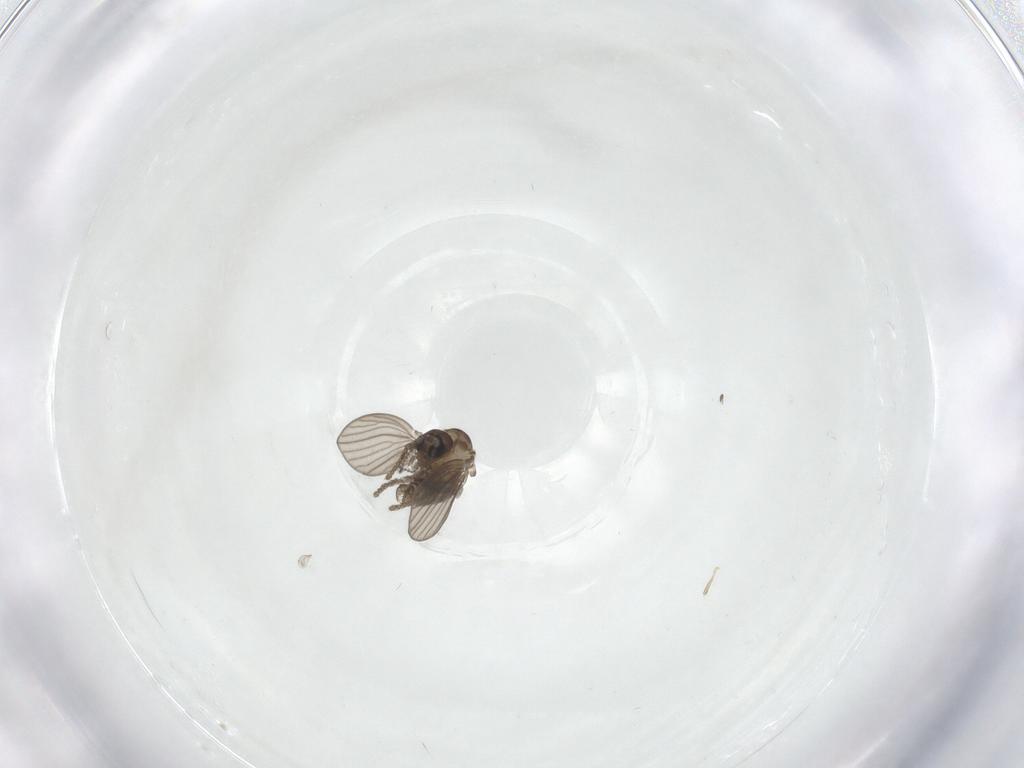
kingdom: Animalia
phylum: Arthropoda
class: Insecta
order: Diptera
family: Psychodidae
